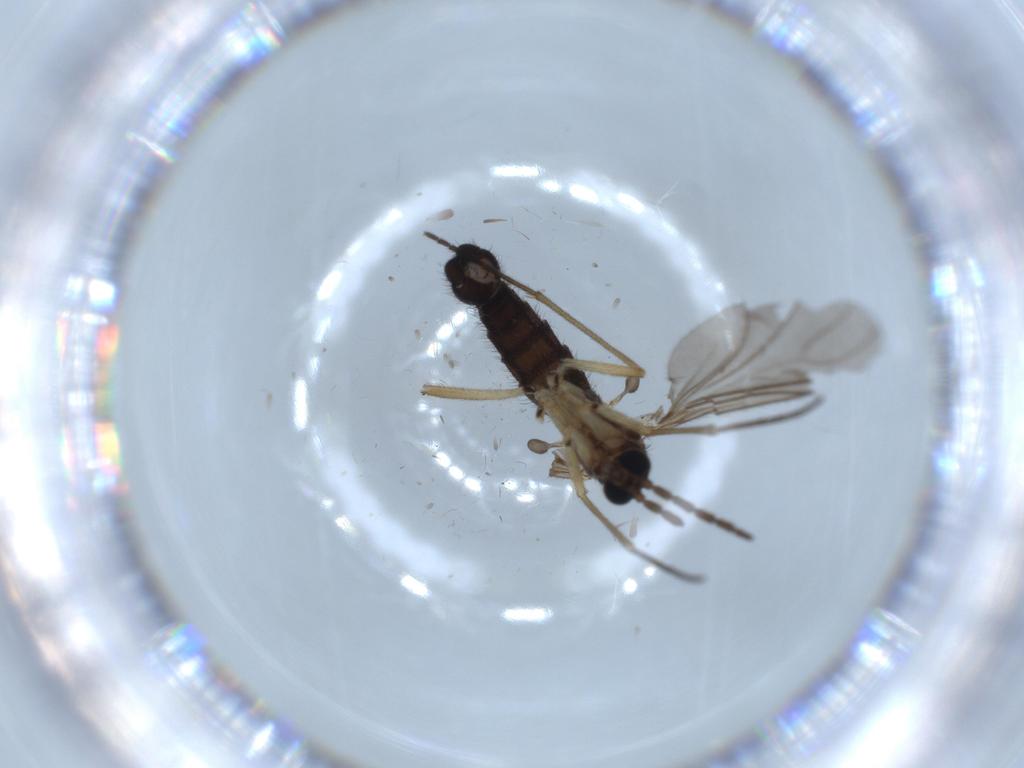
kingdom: Animalia
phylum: Arthropoda
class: Insecta
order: Diptera
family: Sciaridae
